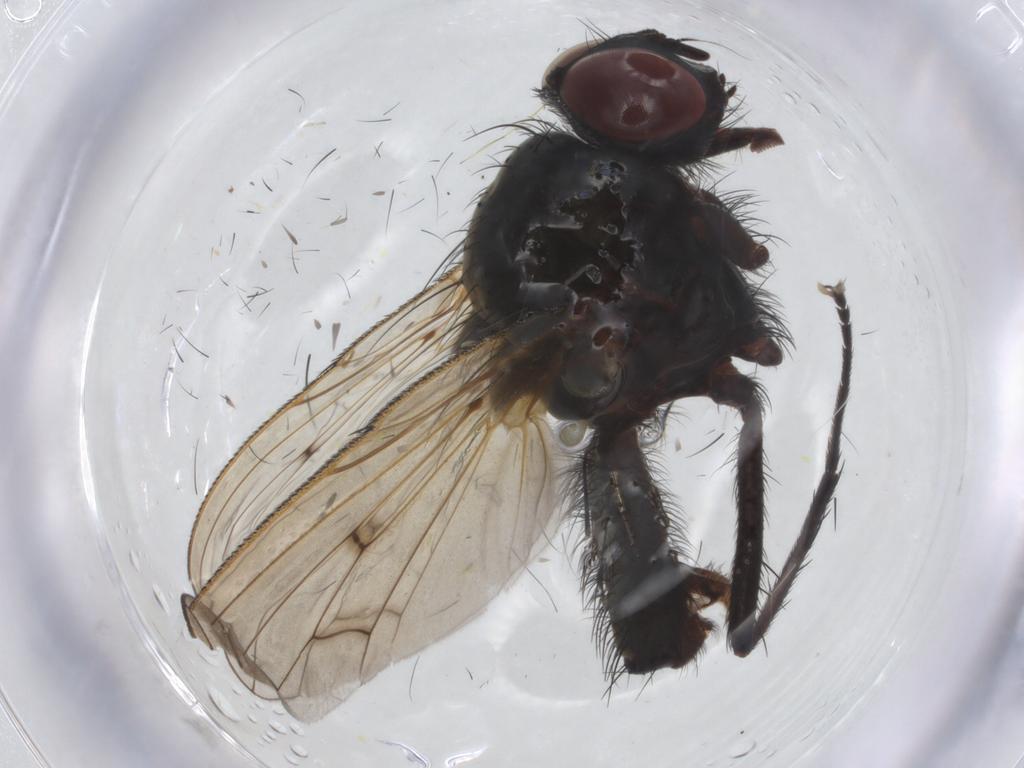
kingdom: Animalia
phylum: Arthropoda
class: Insecta
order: Diptera
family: Anthomyiidae
